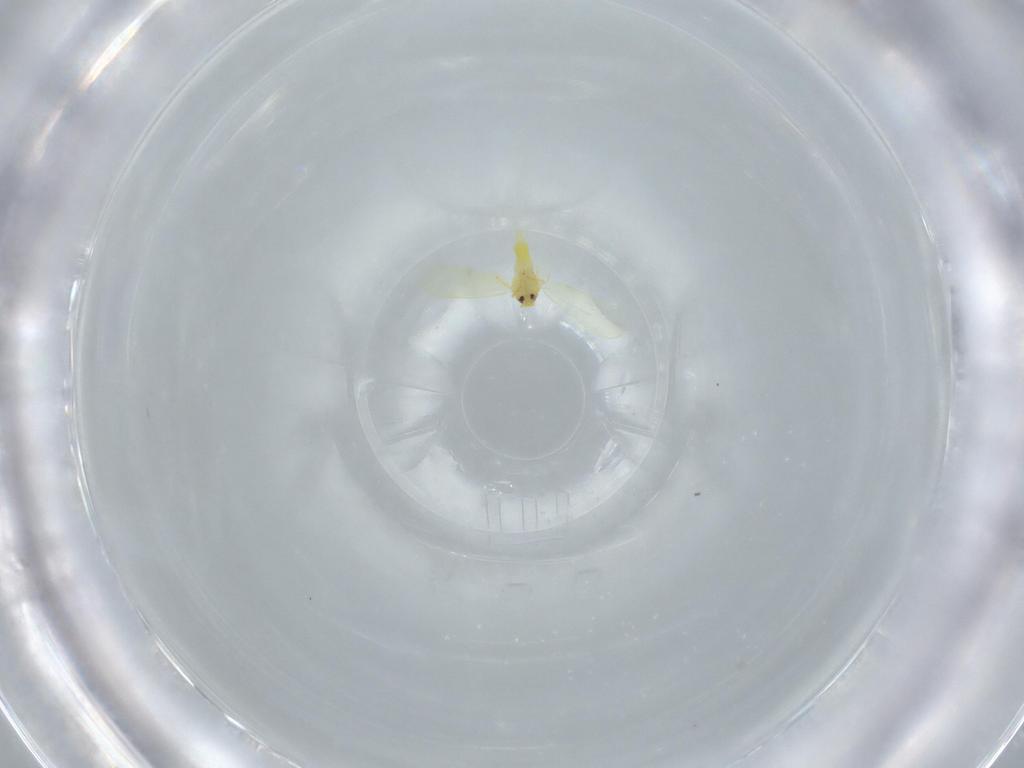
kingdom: Animalia
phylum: Arthropoda
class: Insecta
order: Hemiptera
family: Aleyrodidae
